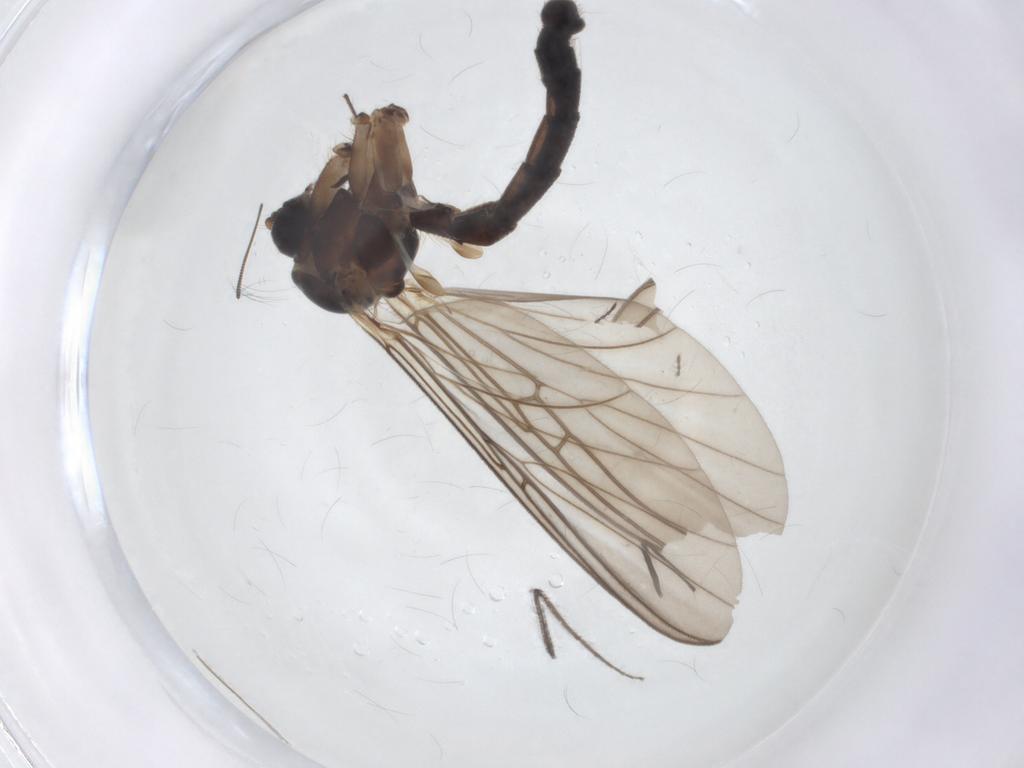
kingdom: Animalia
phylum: Arthropoda
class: Insecta
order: Diptera
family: Mycetophilidae
